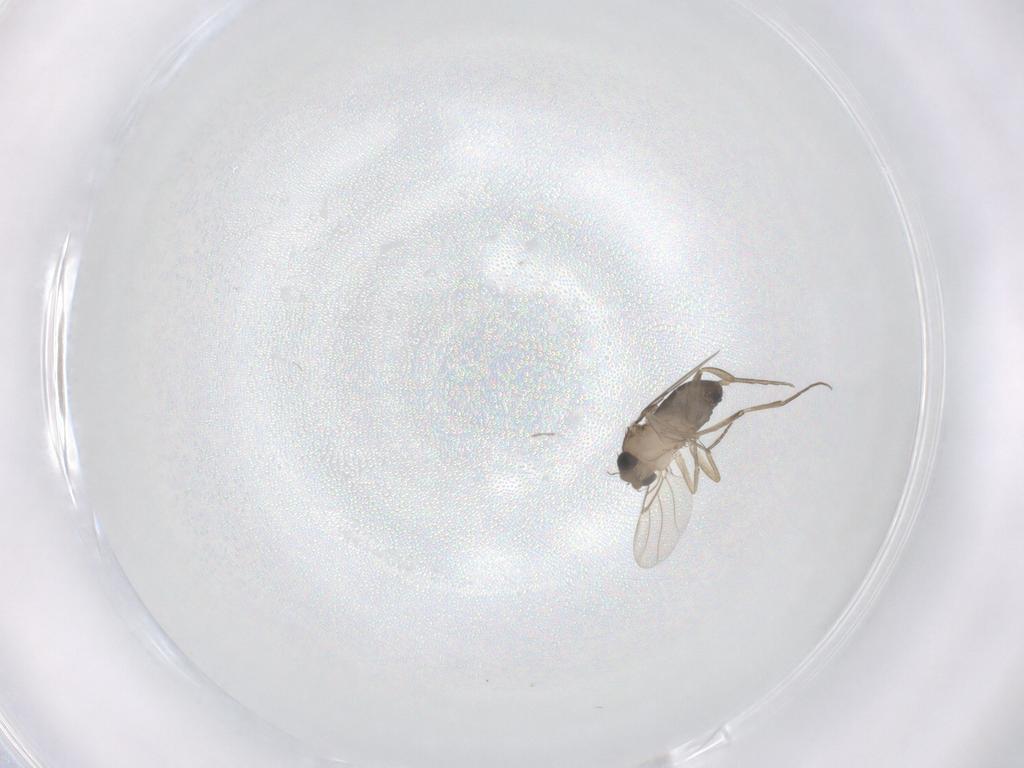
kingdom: Animalia
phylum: Arthropoda
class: Insecta
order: Diptera
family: Phoridae
